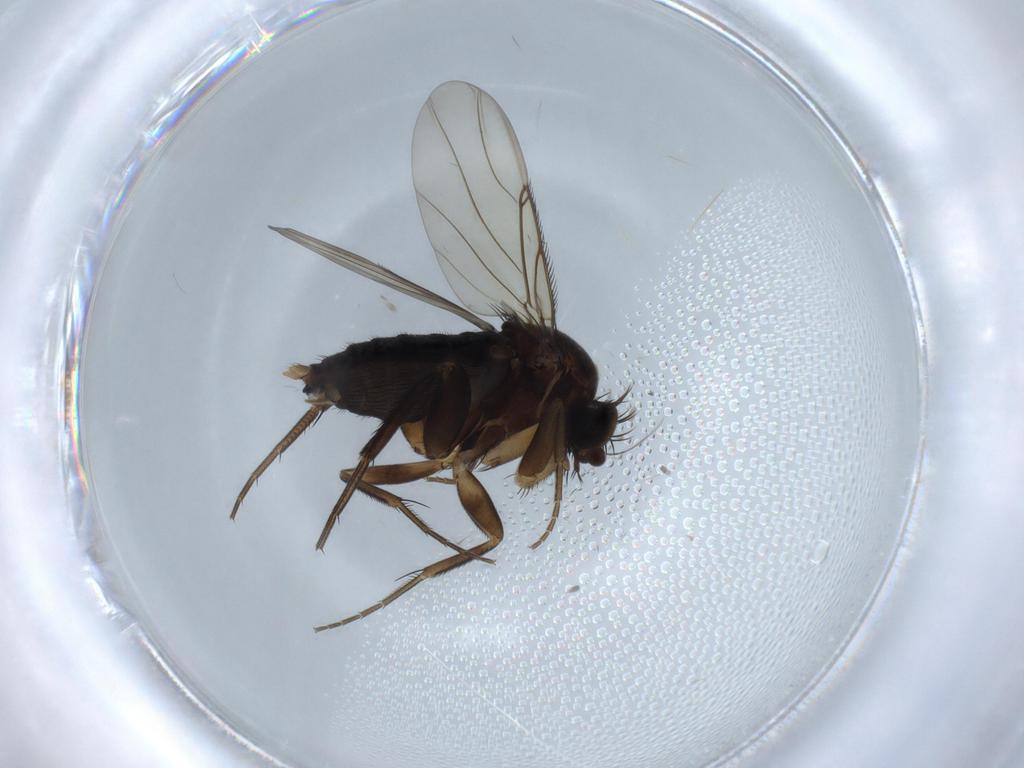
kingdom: Animalia
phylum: Arthropoda
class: Insecta
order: Diptera
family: Phoridae
